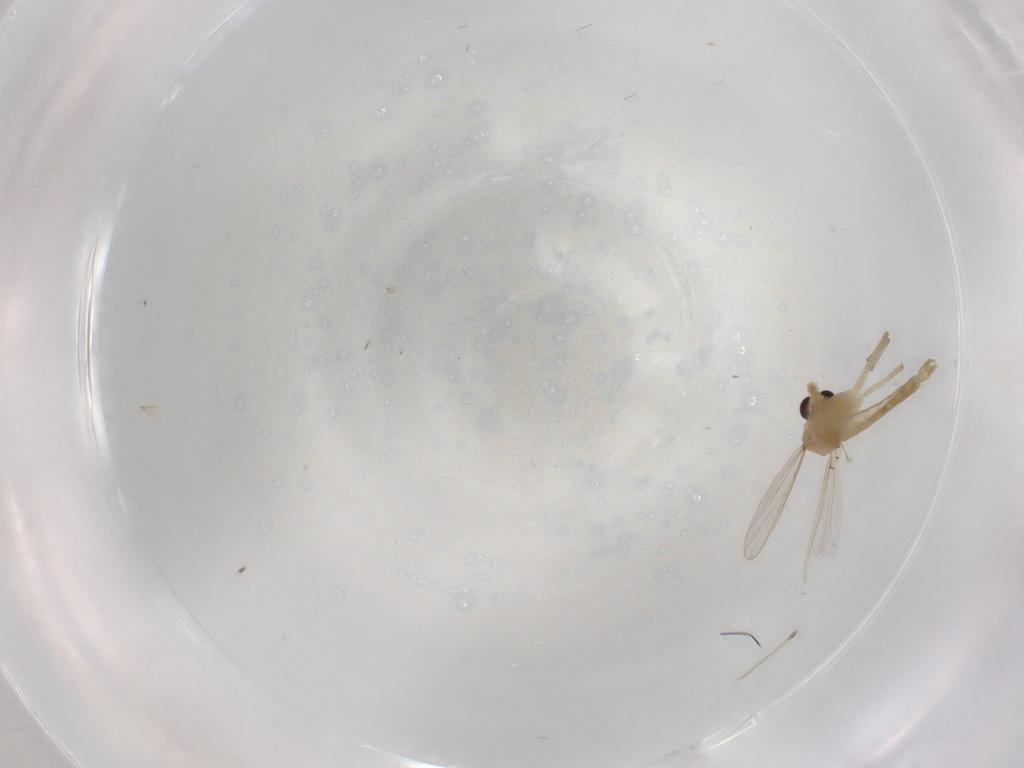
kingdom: Animalia
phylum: Arthropoda
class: Insecta
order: Diptera
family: Chironomidae
